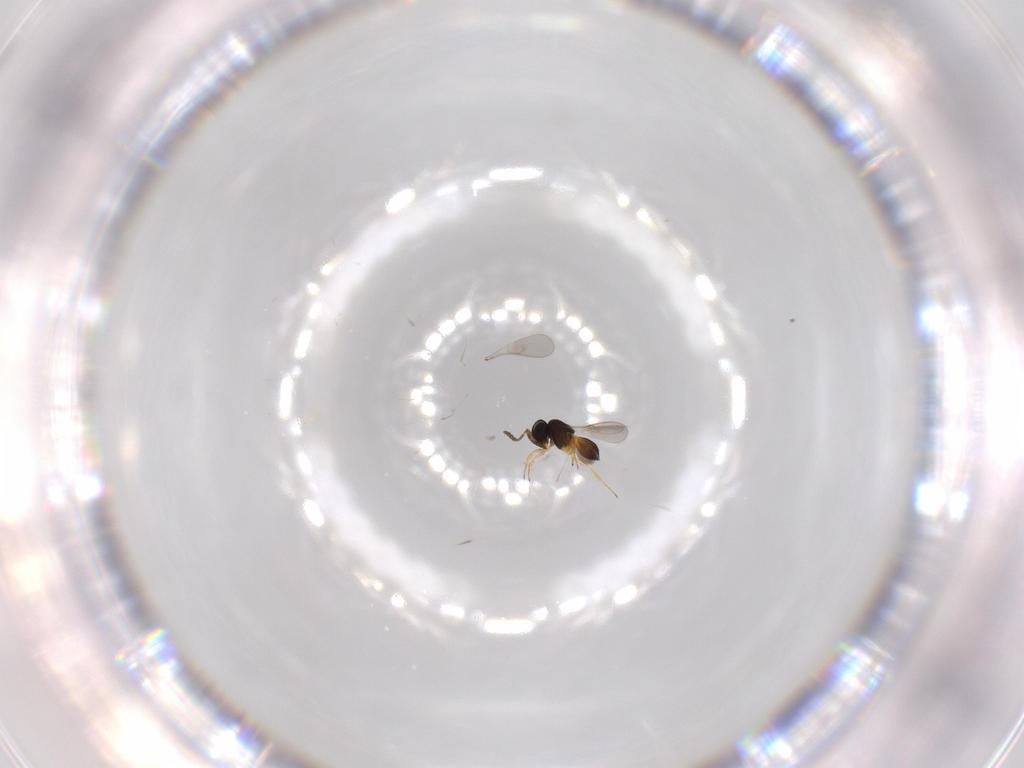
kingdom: Animalia
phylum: Arthropoda
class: Insecta
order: Hymenoptera
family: Scelionidae
